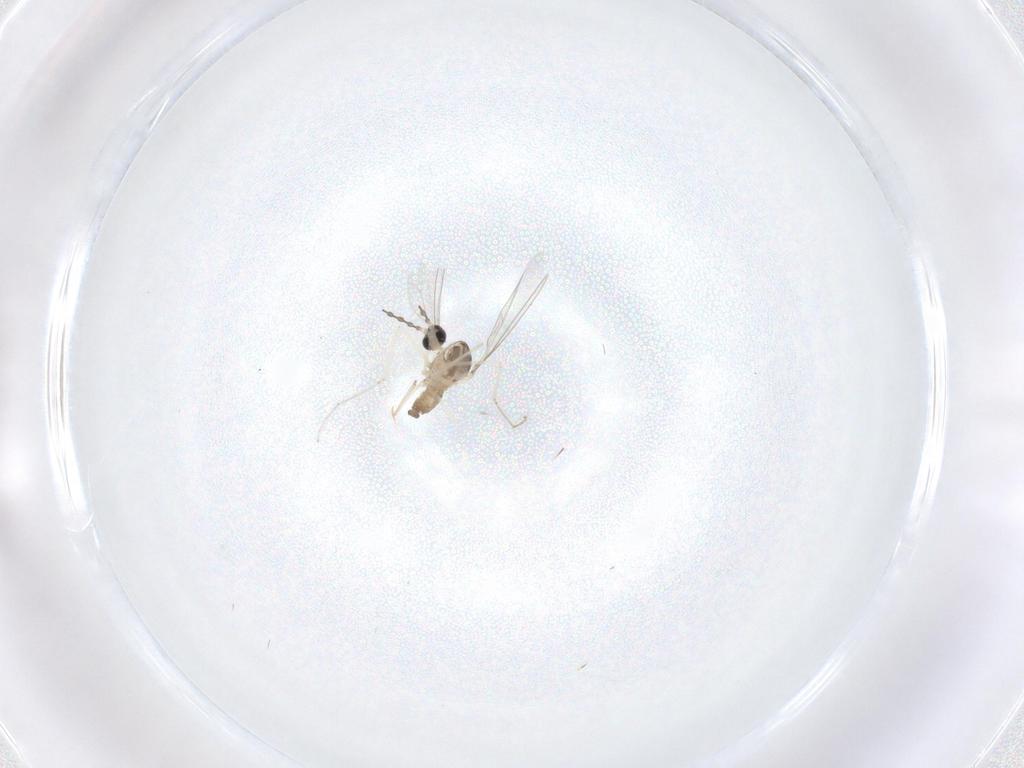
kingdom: Animalia
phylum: Arthropoda
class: Insecta
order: Diptera
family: Cecidomyiidae
